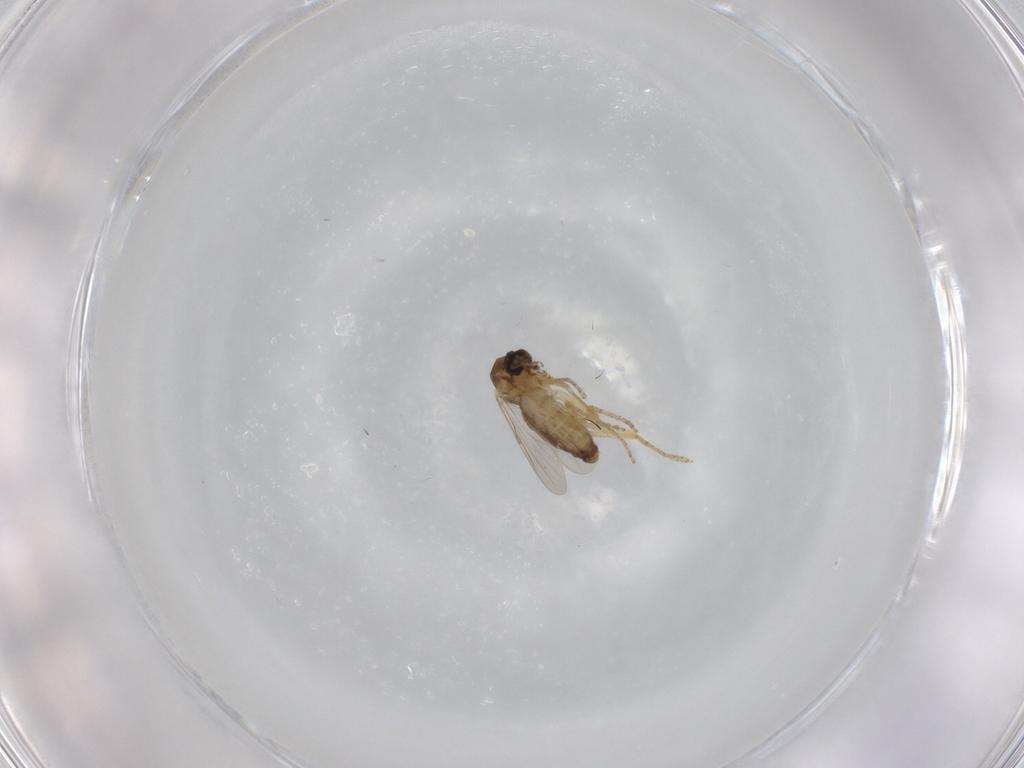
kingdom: Animalia
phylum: Arthropoda
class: Insecta
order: Diptera
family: Ceratopogonidae
